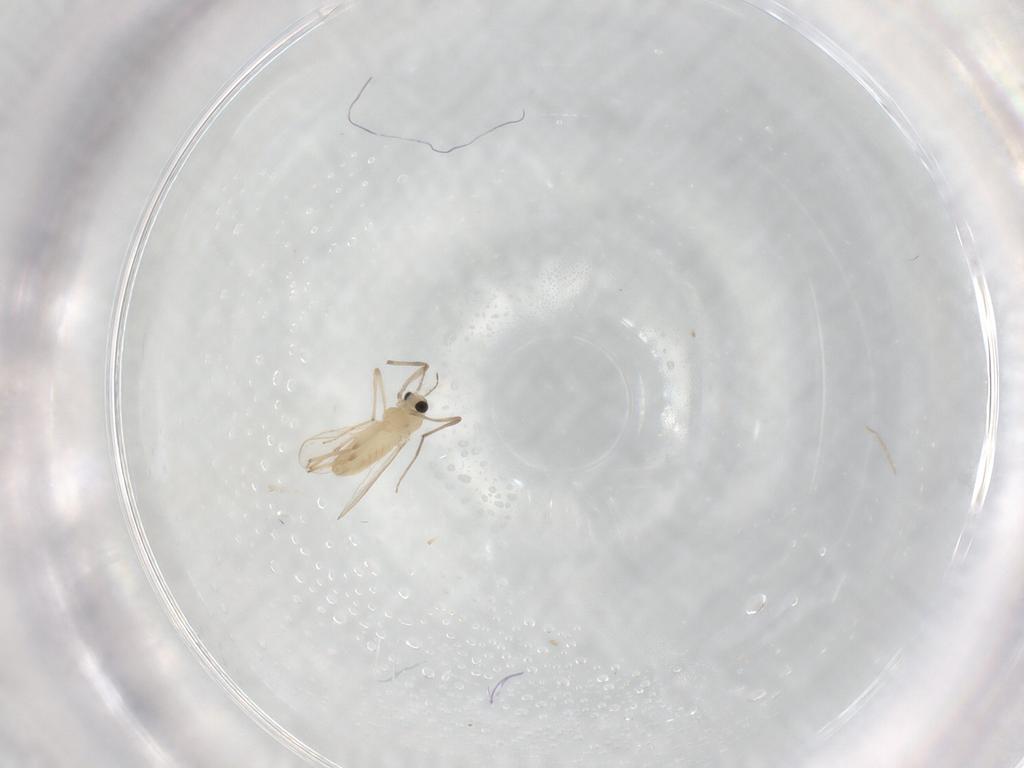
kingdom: Animalia
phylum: Arthropoda
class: Insecta
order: Diptera
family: Chironomidae
